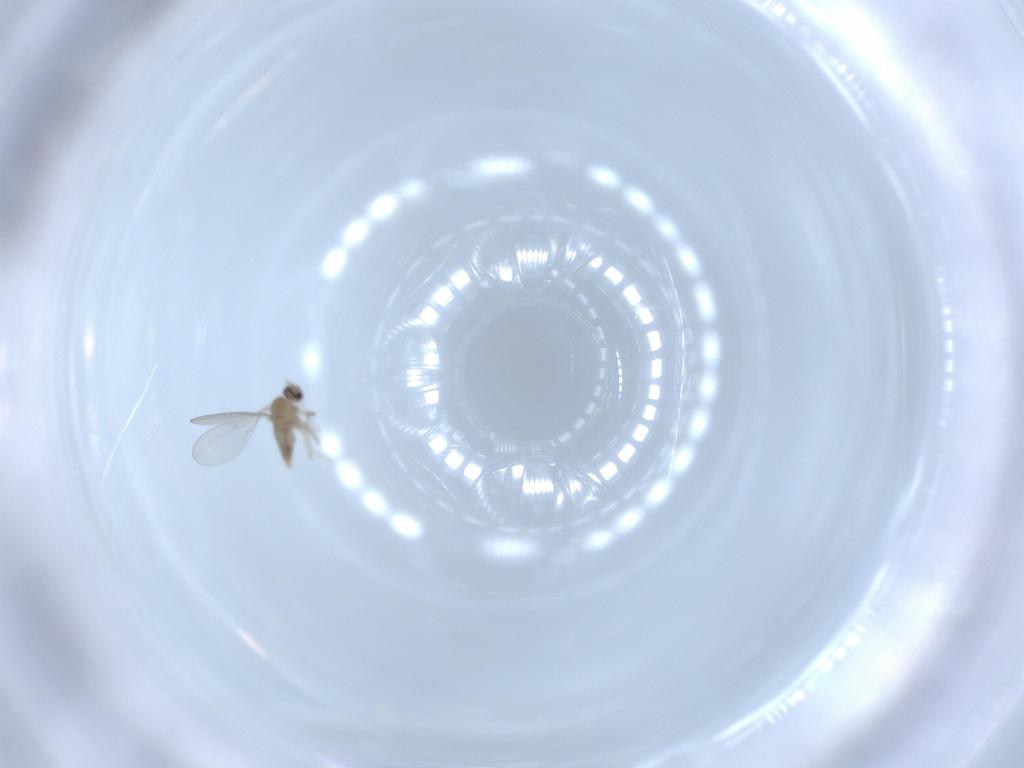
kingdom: Animalia
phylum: Arthropoda
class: Insecta
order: Diptera
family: Cecidomyiidae
